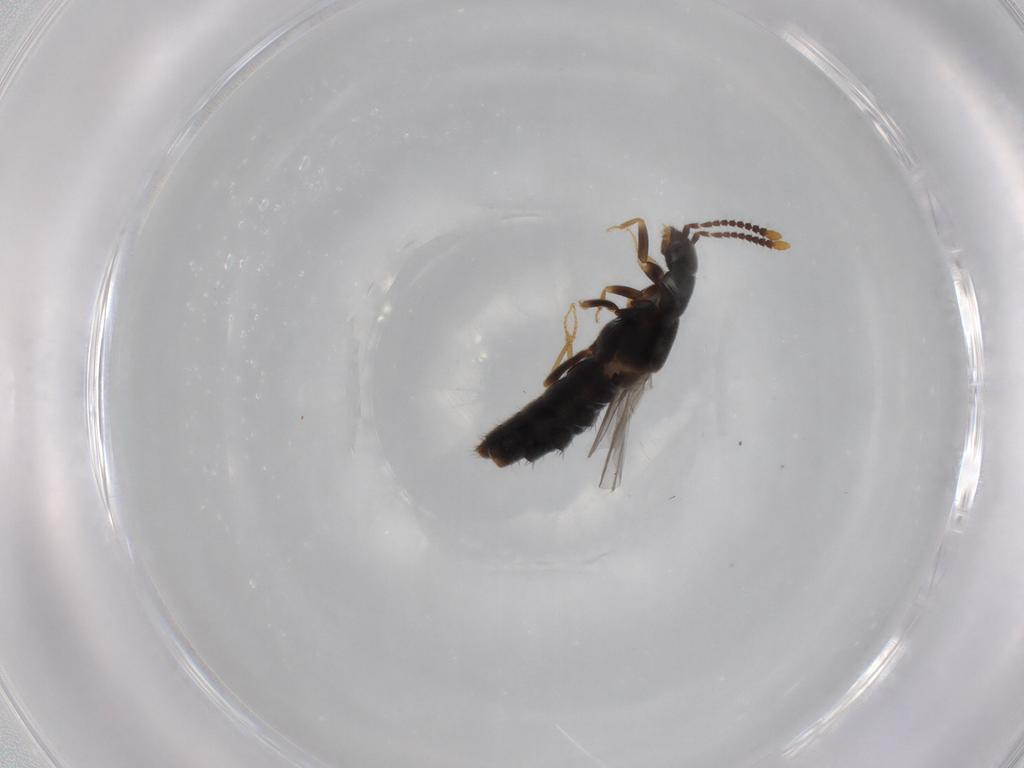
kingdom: Animalia
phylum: Arthropoda
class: Insecta
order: Coleoptera
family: Staphylinidae
